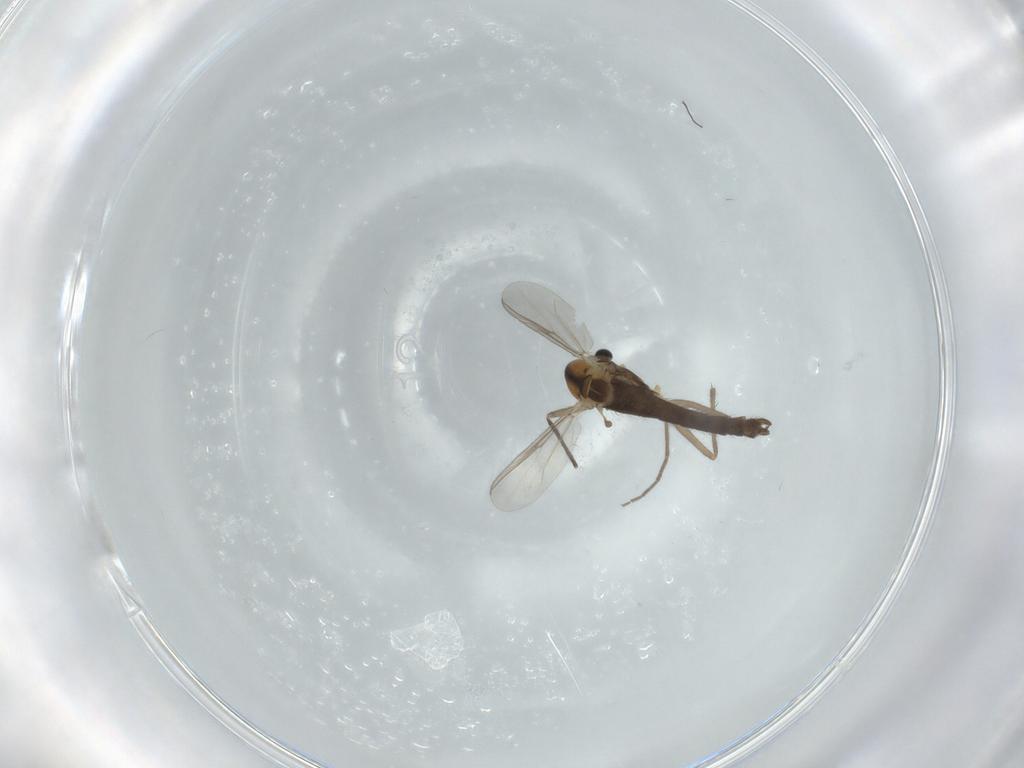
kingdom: Animalia
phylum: Arthropoda
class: Insecta
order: Diptera
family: Chironomidae
